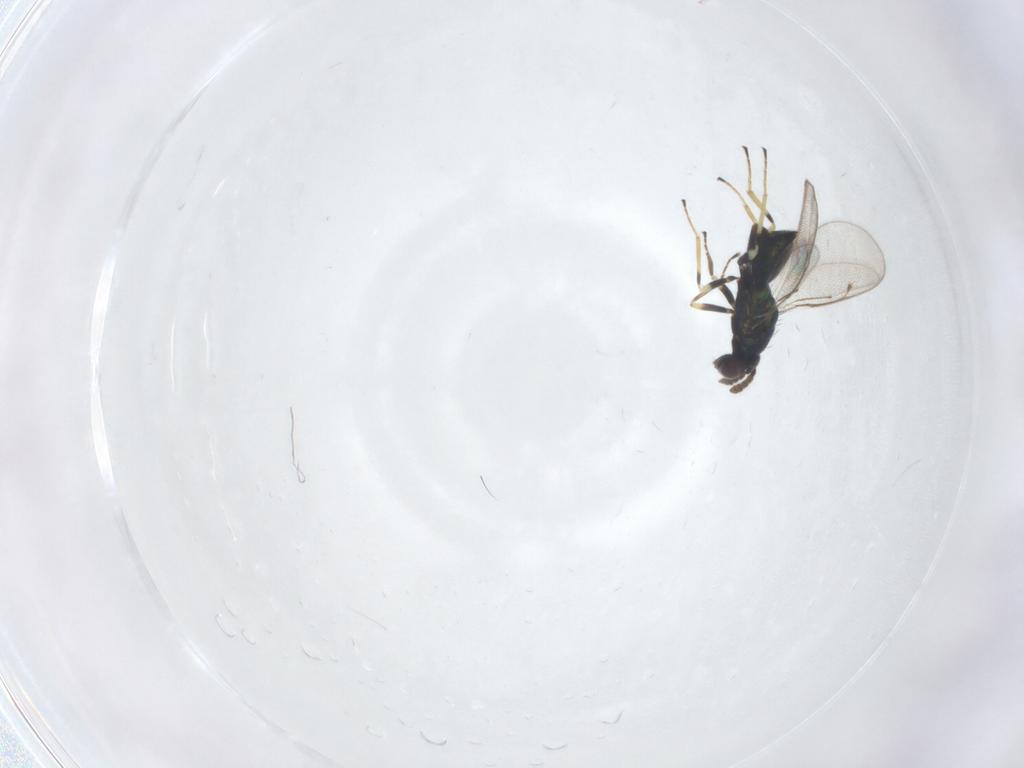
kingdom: Animalia
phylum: Arthropoda
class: Insecta
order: Hymenoptera
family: Eulophidae
